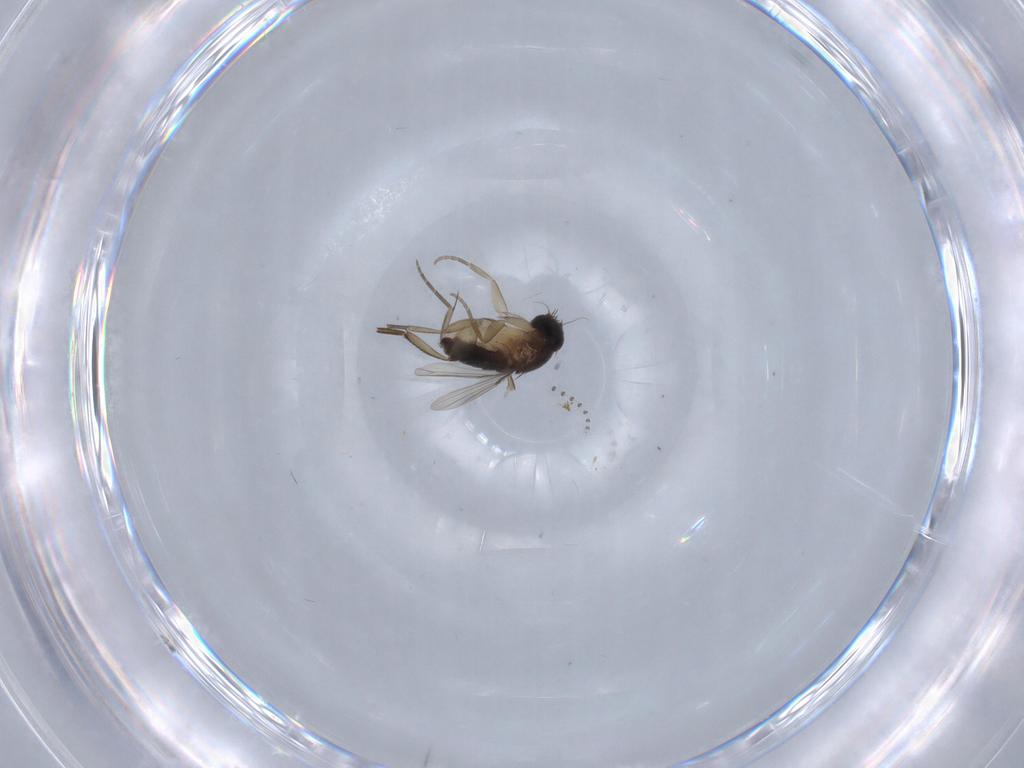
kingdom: Animalia
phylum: Arthropoda
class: Insecta
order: Diptera
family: Phoridae
